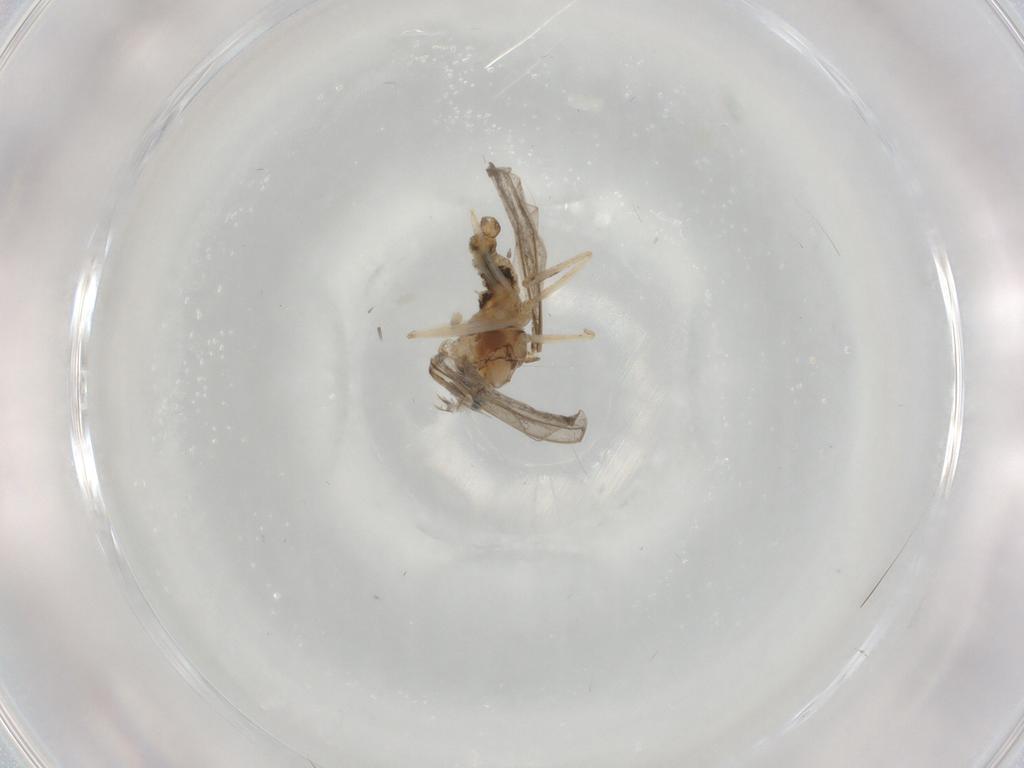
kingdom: Animalia
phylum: Arthropoda
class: Insecta
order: Diptera
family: Cecidomyiidae
